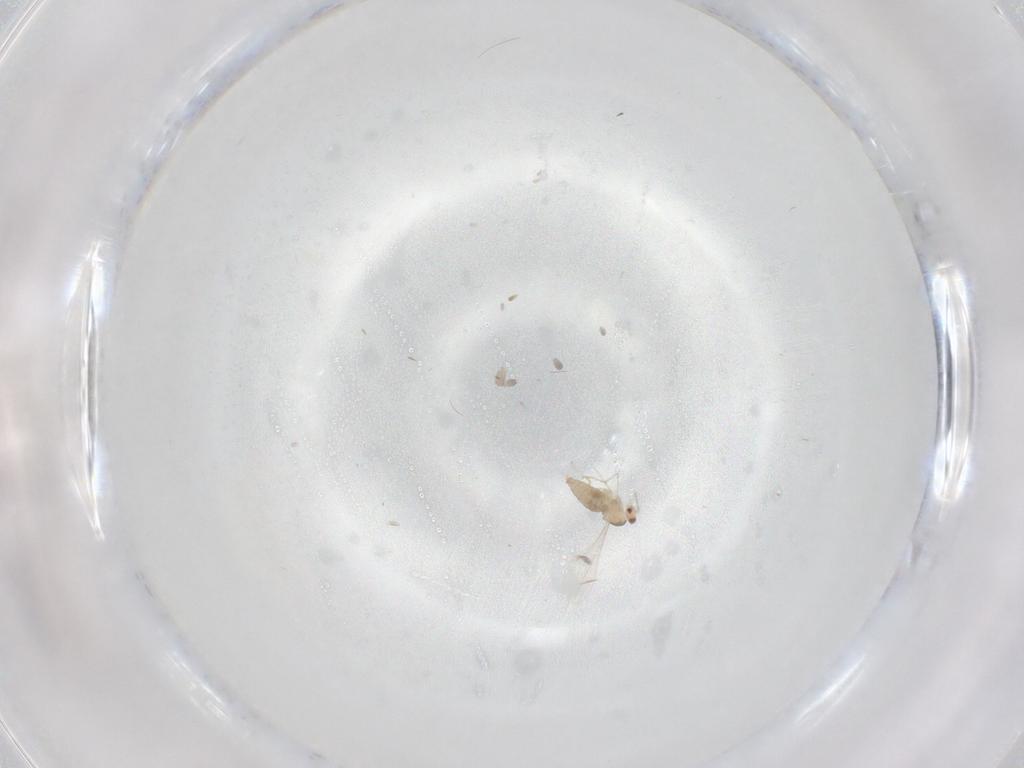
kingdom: Animalia
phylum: Arthropoda
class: Insecta
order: Diptera
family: Cecidomyiidae
